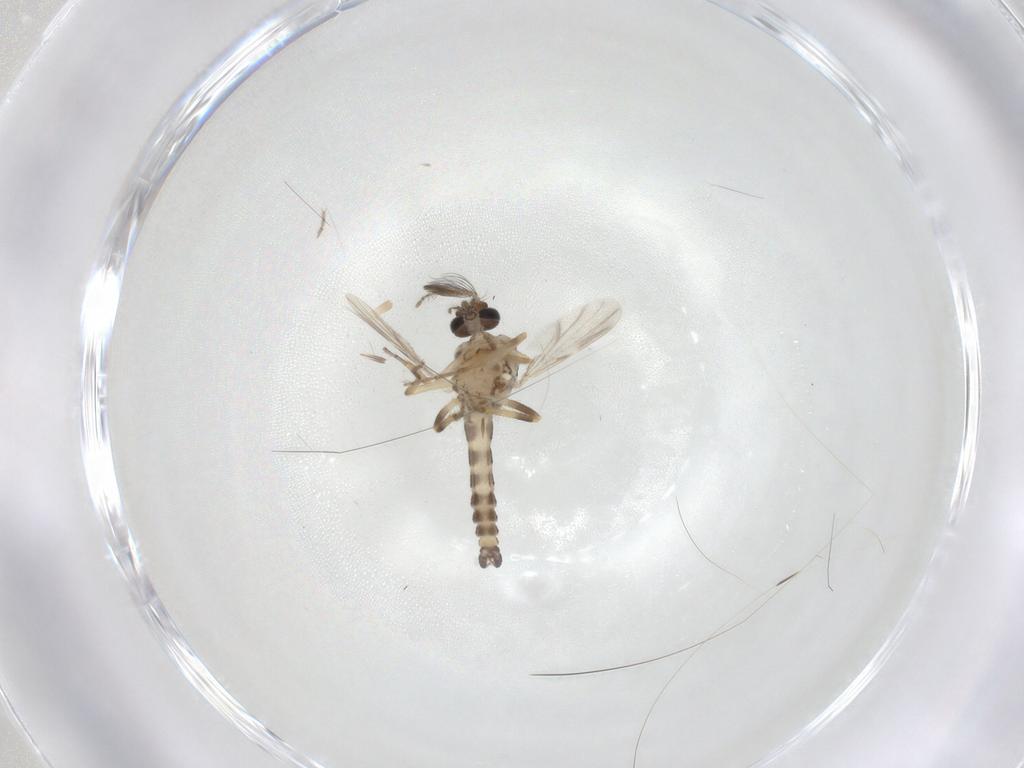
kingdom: Animalia
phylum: Arthropoda
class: Insecta
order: Diptera
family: Ceratopogonidae
